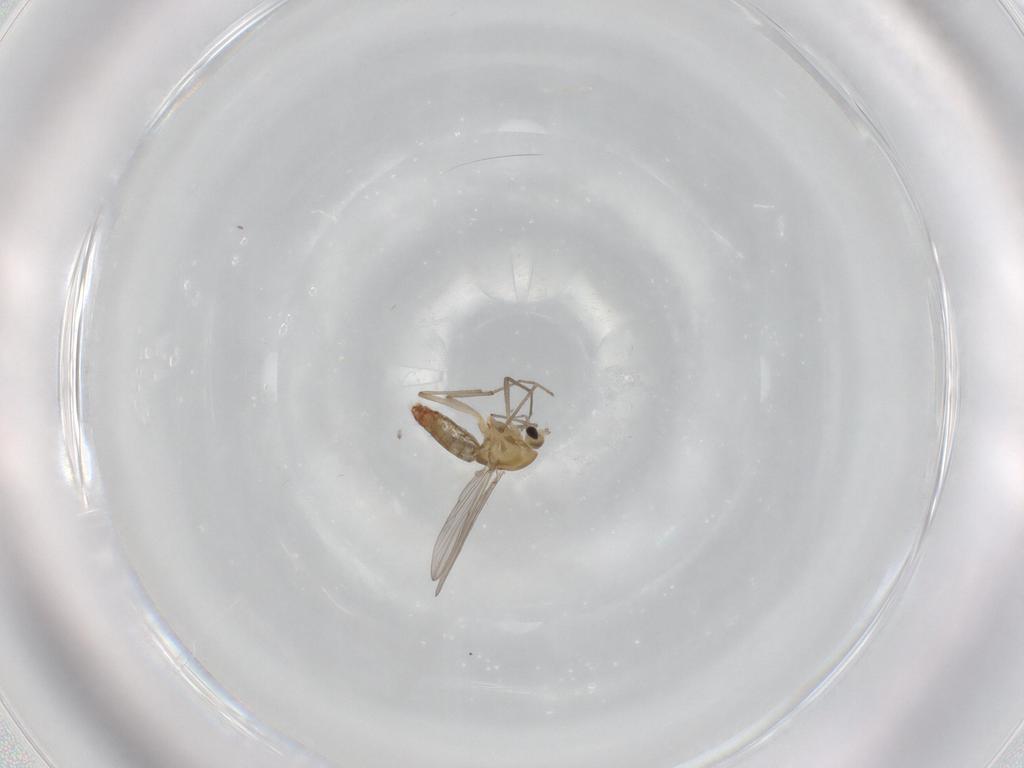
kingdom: Animalia
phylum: Arthropoda
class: Insecta
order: Diptera
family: Chironomidae
